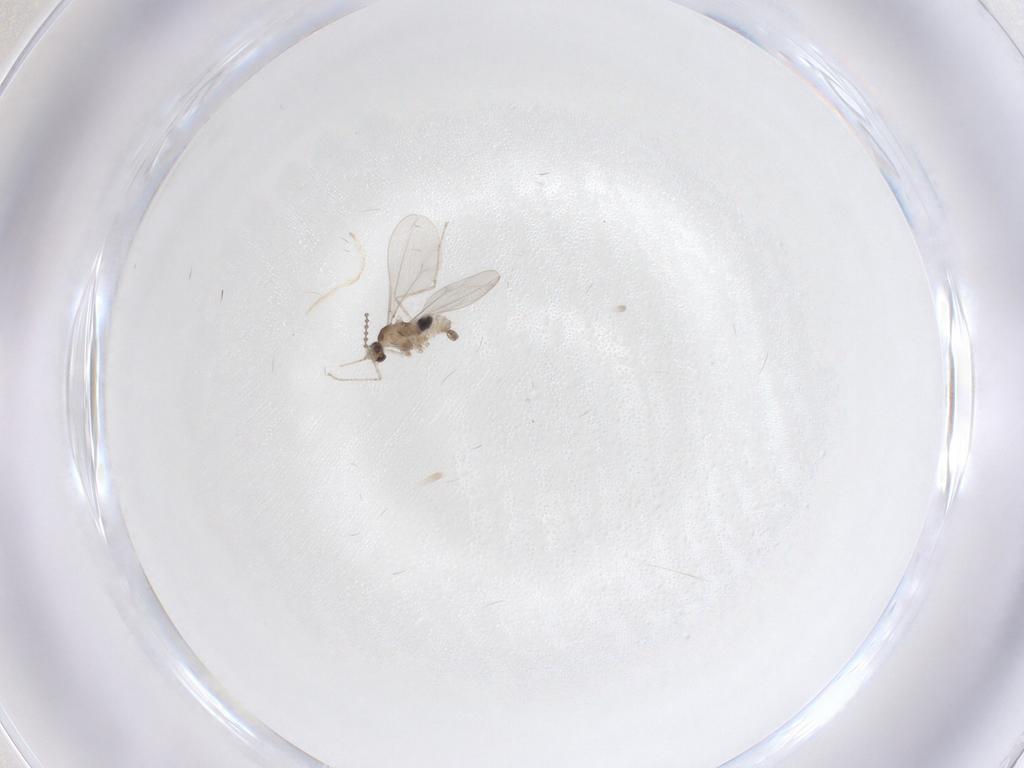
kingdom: Animalia
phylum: Arthropoda
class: Insecta
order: Diptera
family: Cecidomyiidae
